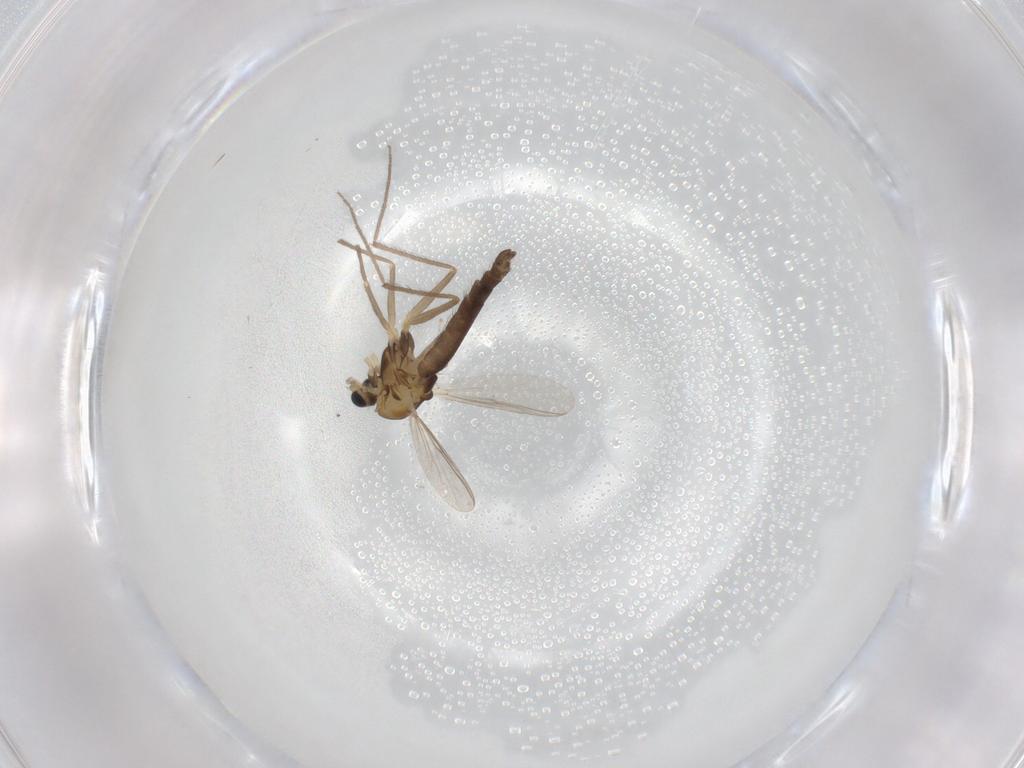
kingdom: Animalia
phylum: Arthropoda
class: Insecta
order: Diptera
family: Chironomidae
